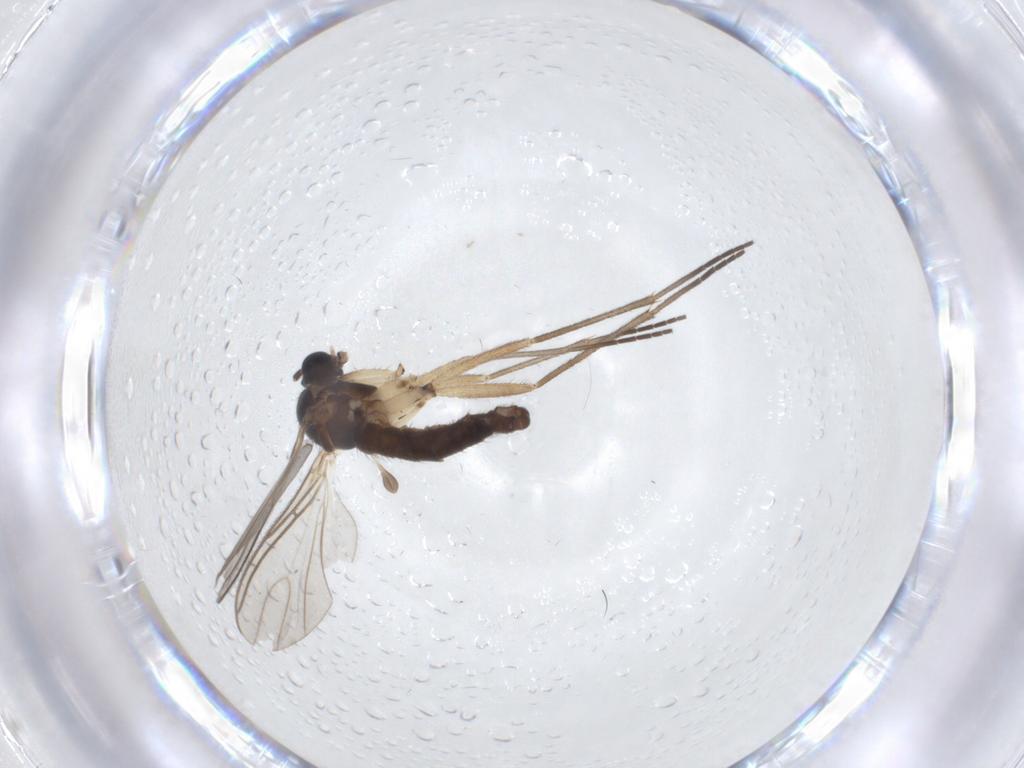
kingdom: Animalia
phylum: Arthropoda
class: Insecta
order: Diptera
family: Sciaridae
